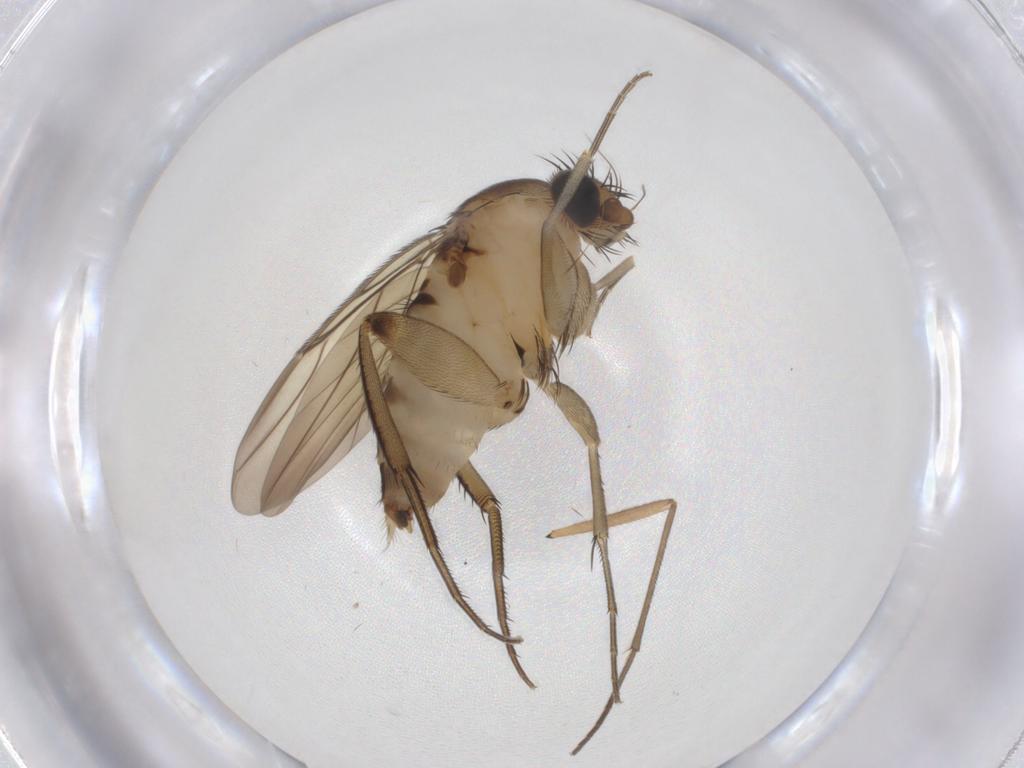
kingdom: Animalia
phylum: Arthropoda
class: Insecta
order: Diptera
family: Phoridae
